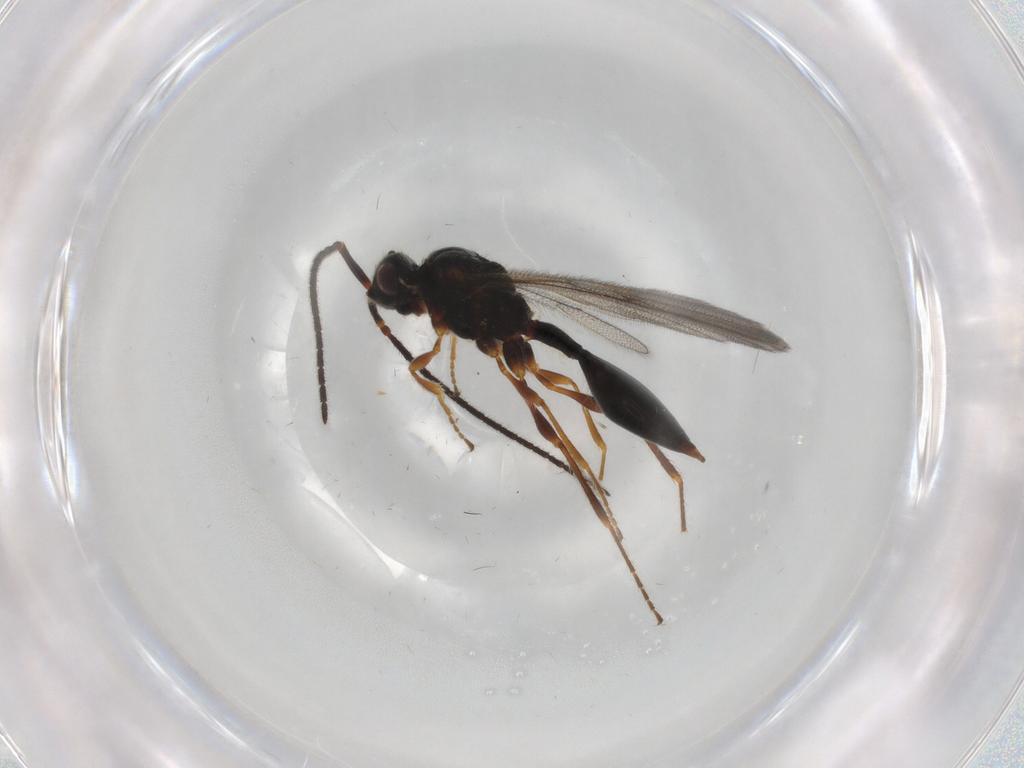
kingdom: Animalia
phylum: Arthropoda
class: Insecta
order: Hymenoptera
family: Diapriidae
